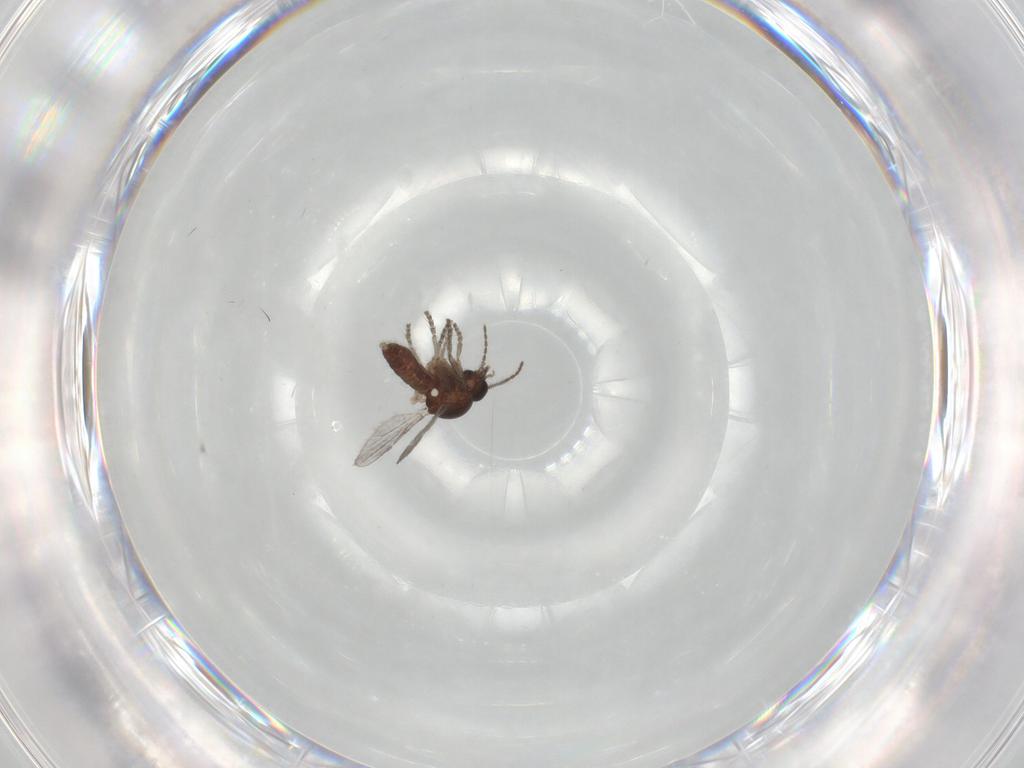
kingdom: Animalia
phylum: Arthropoda
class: Insecta
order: Diptera
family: Ceratopogonidae
